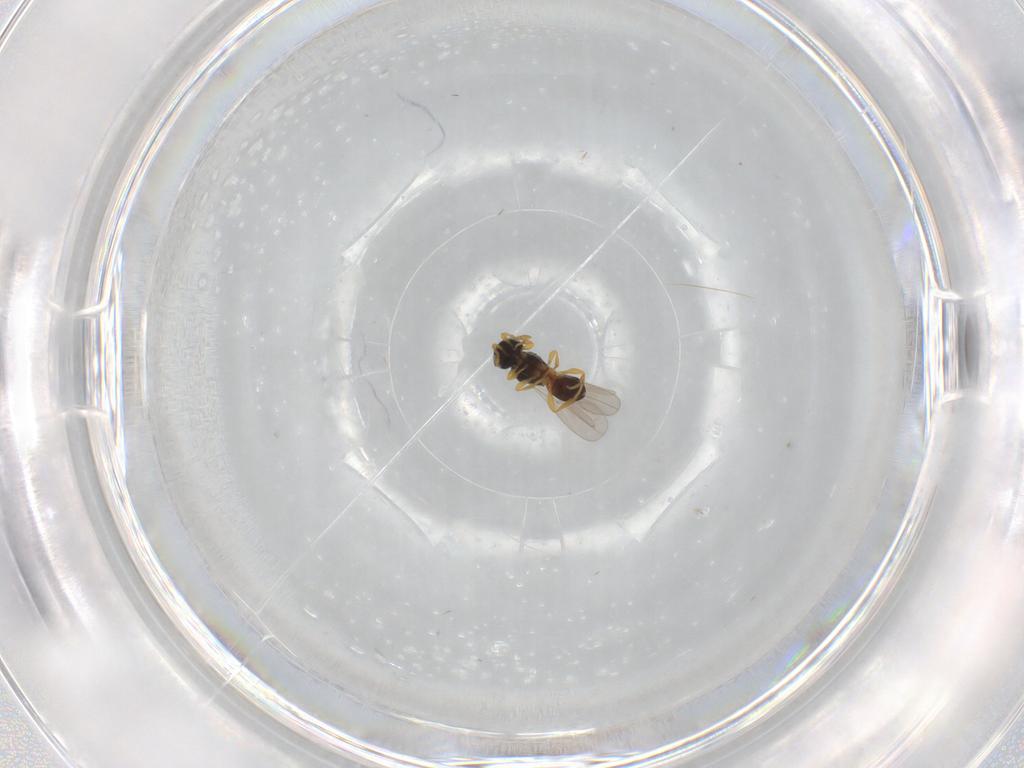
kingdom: Animalia
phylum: Arthropoda
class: Insecta
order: Hymenoptera
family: Platygastridae
